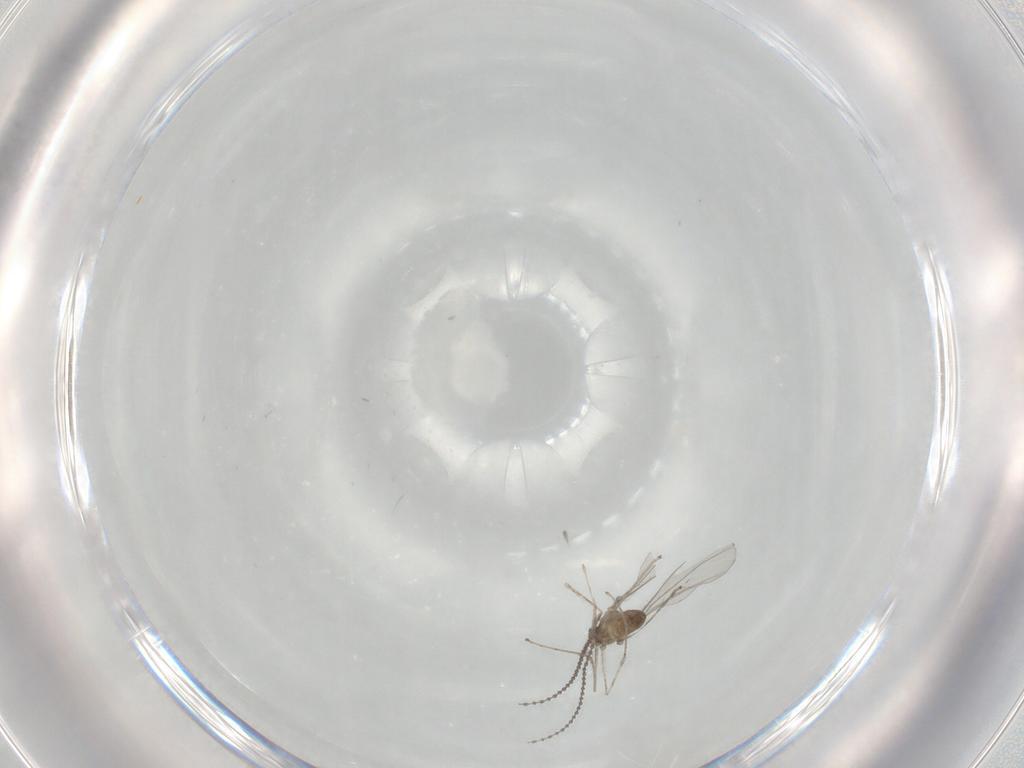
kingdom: Animalia
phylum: Arthropoda
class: Insecta
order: Diptera
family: Cecidomyiidae
